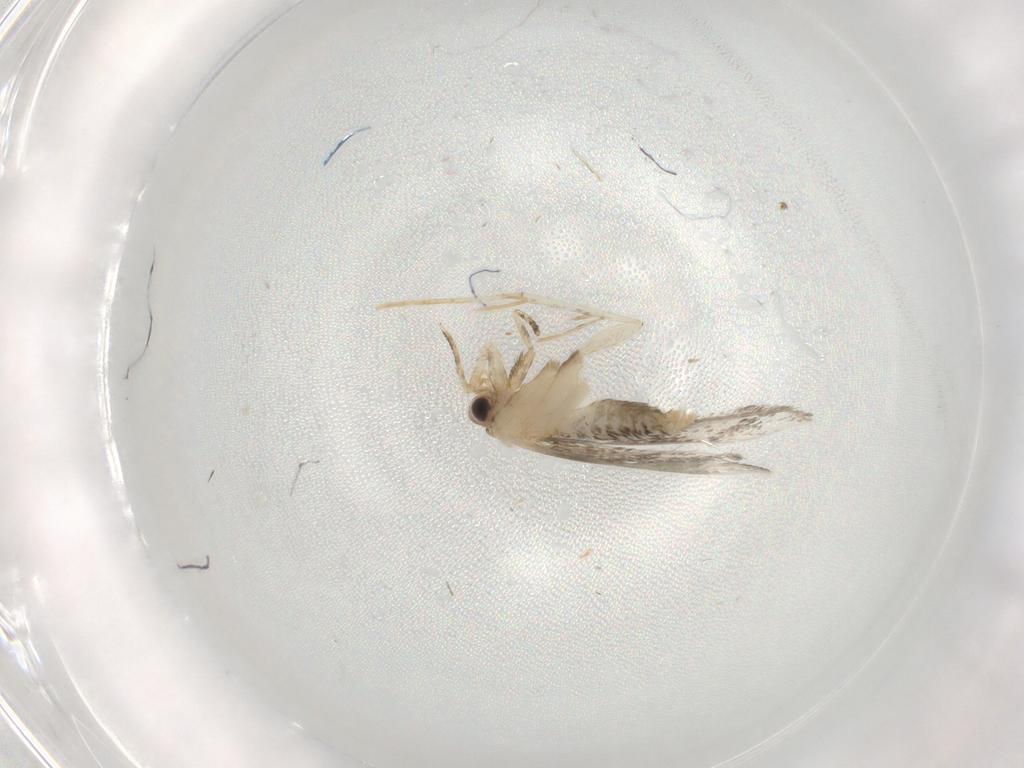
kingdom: Animalia
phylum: Arthropoda
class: Insecta
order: Lepidoptera
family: Tineidae
